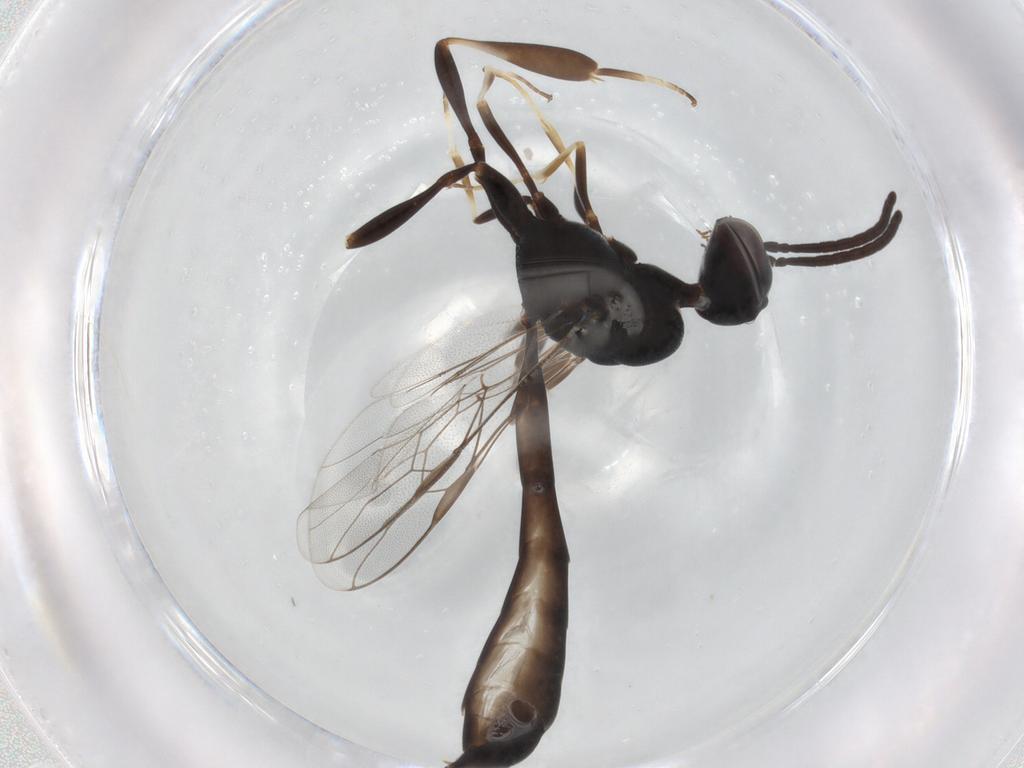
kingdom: Animalia
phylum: Arthropoda
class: Insecta
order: Hymenoptera
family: Gasteruptiidae
